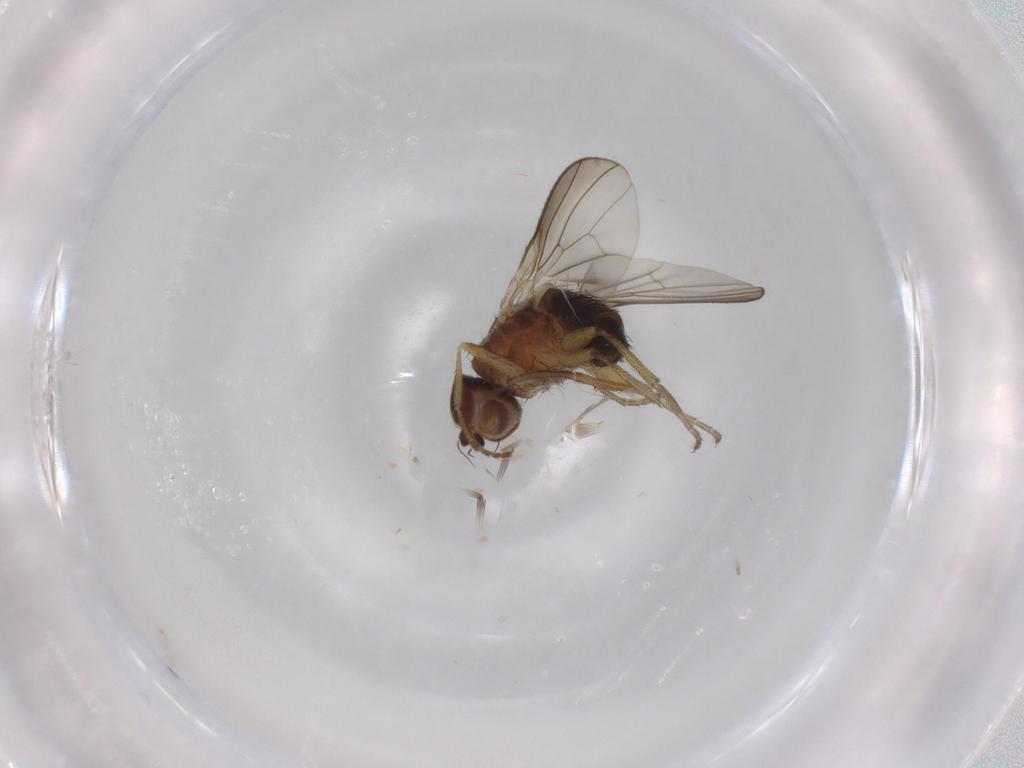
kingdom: Animalia
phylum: Arthropoda
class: Insecta
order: Diptera
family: Heleomyzidae
